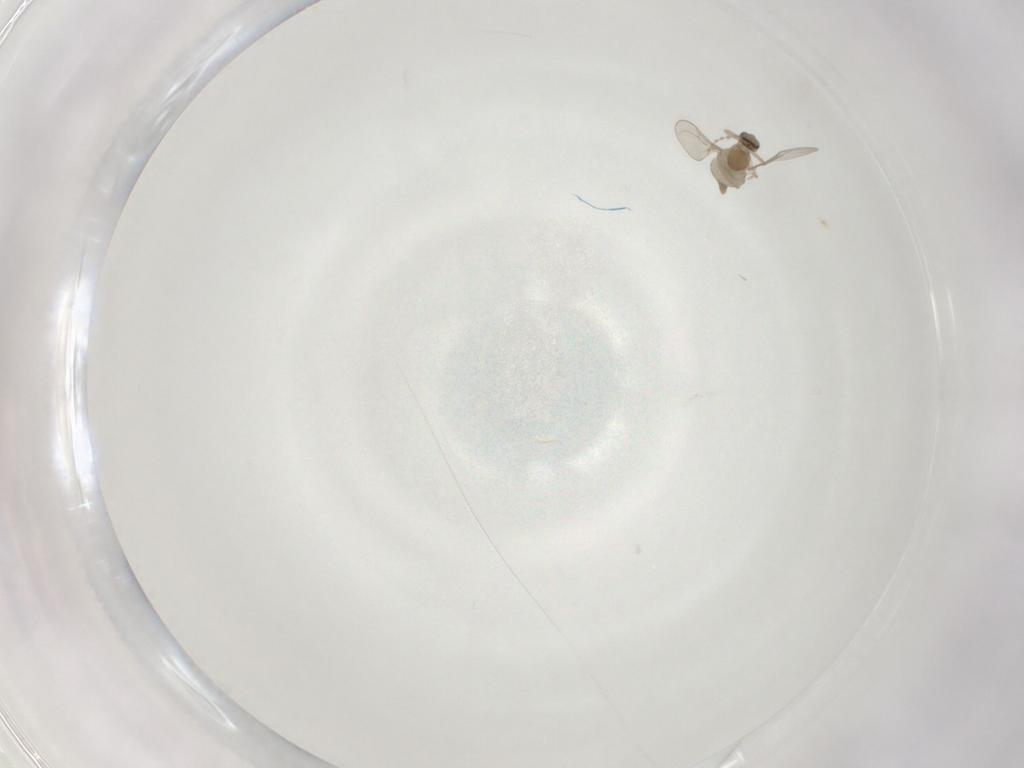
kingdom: Animalia
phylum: Arthropoda
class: Insecta
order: Diptera
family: Cecidomyiidae
